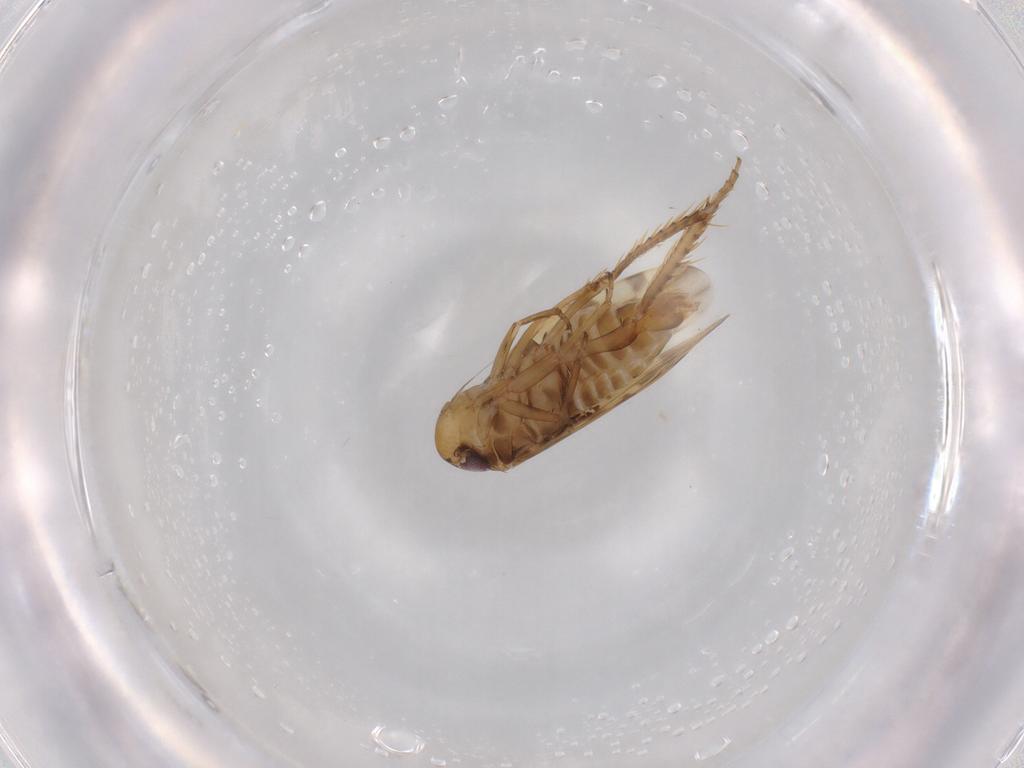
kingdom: Animalia
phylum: Arthropoda
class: Insecta
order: Hemiptera
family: Cicadellidae
